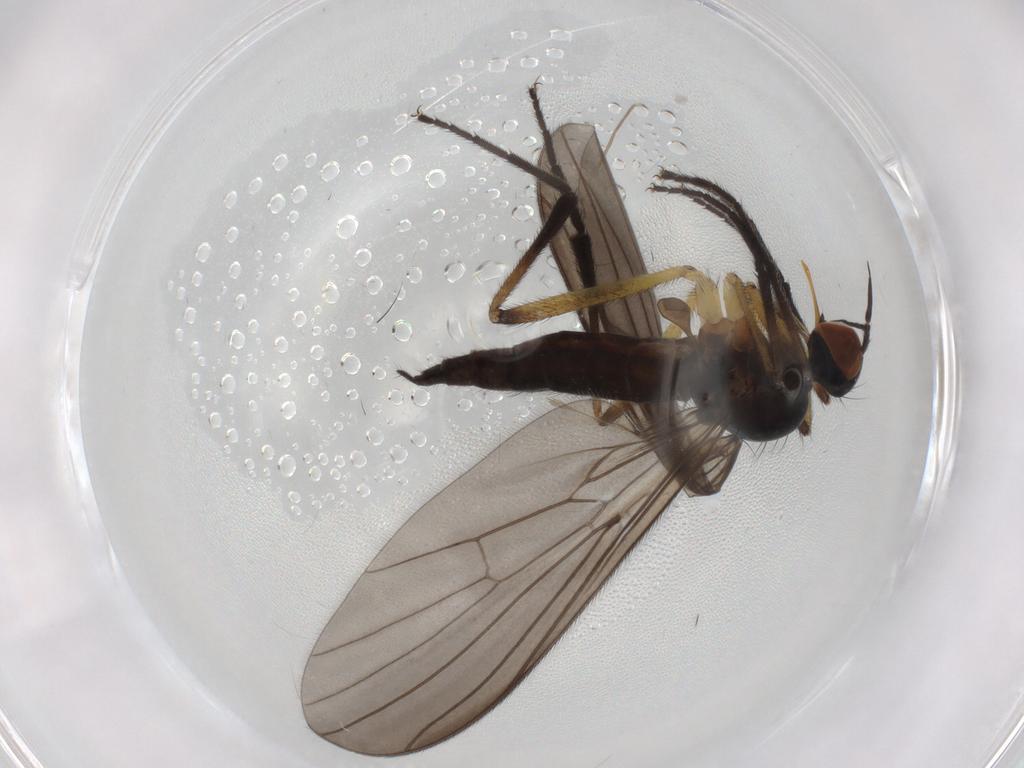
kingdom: Animalia
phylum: Arthropoda
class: Insecta
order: Diptera
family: Empididae
